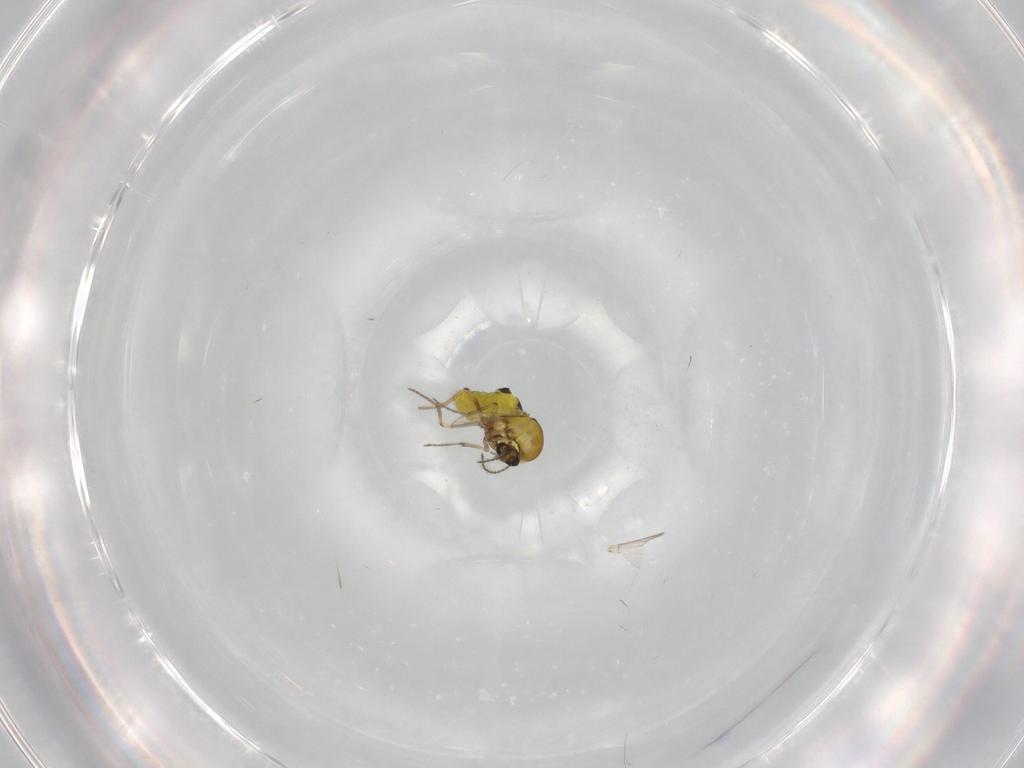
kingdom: Animalia
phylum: Arthropoda
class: Insecta
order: Diptera
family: Ceratopogonidae
